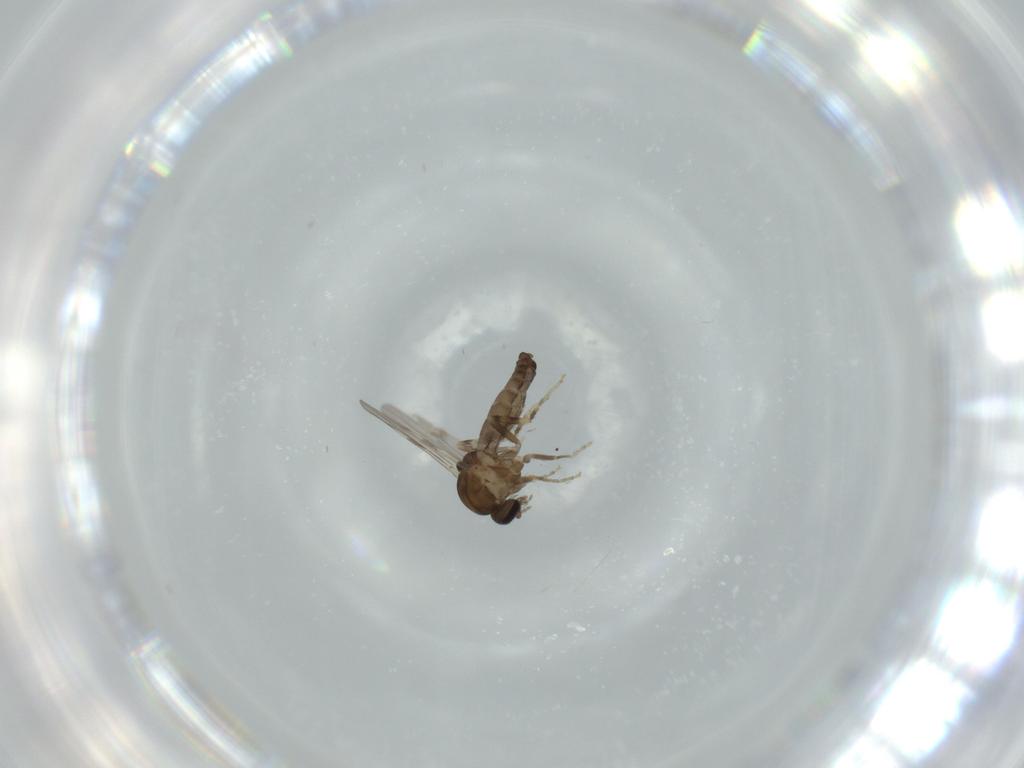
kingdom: Animalia
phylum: Arthropoda
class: Insecta
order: Diptera
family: Ceratopogonidae
